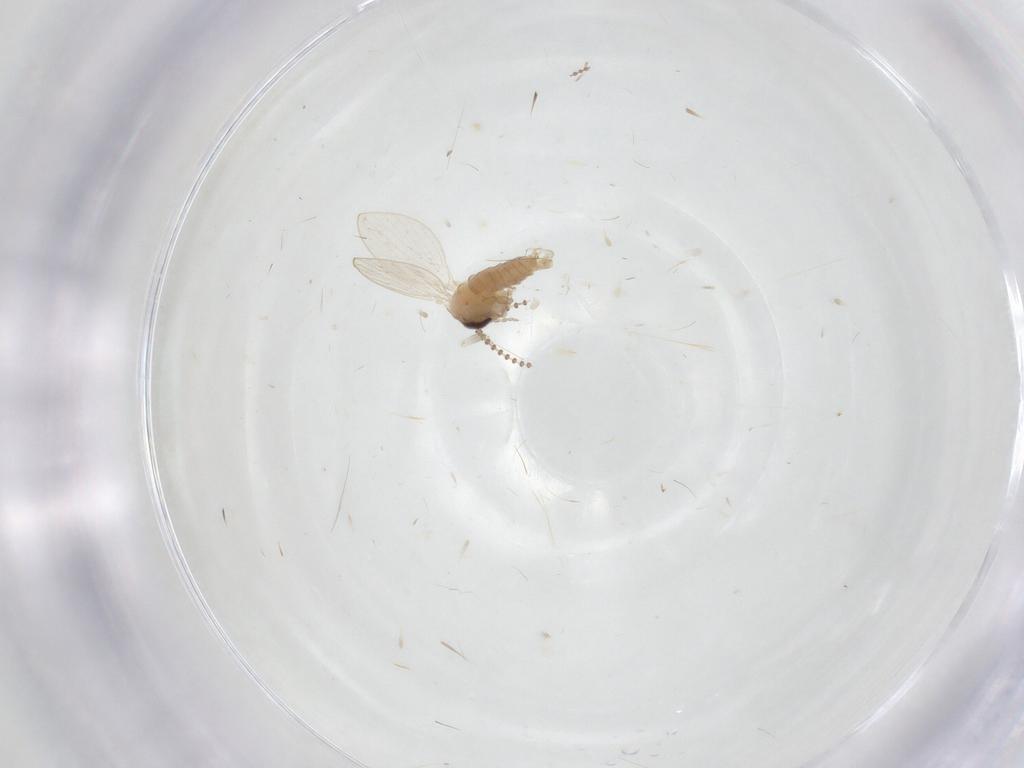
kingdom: Animalia
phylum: Arthropoda
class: Insecta
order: Diptera
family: Psychodidae
